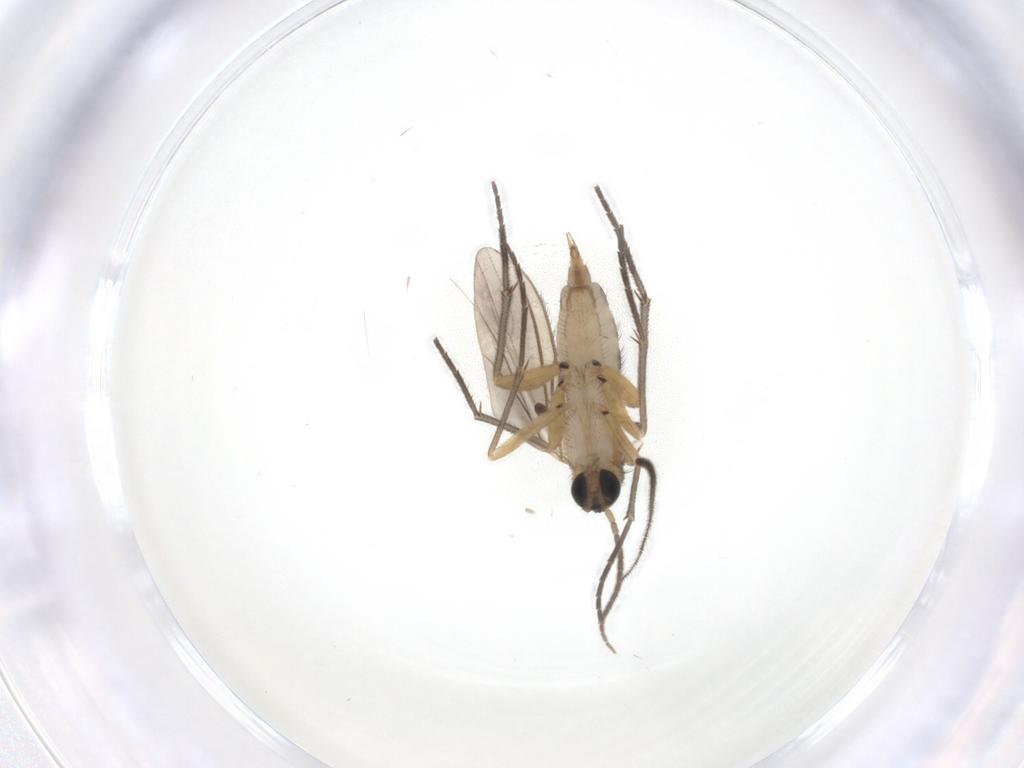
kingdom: Animalia
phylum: Arthropoda
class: Insecta
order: Diptera
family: Sciaridae
